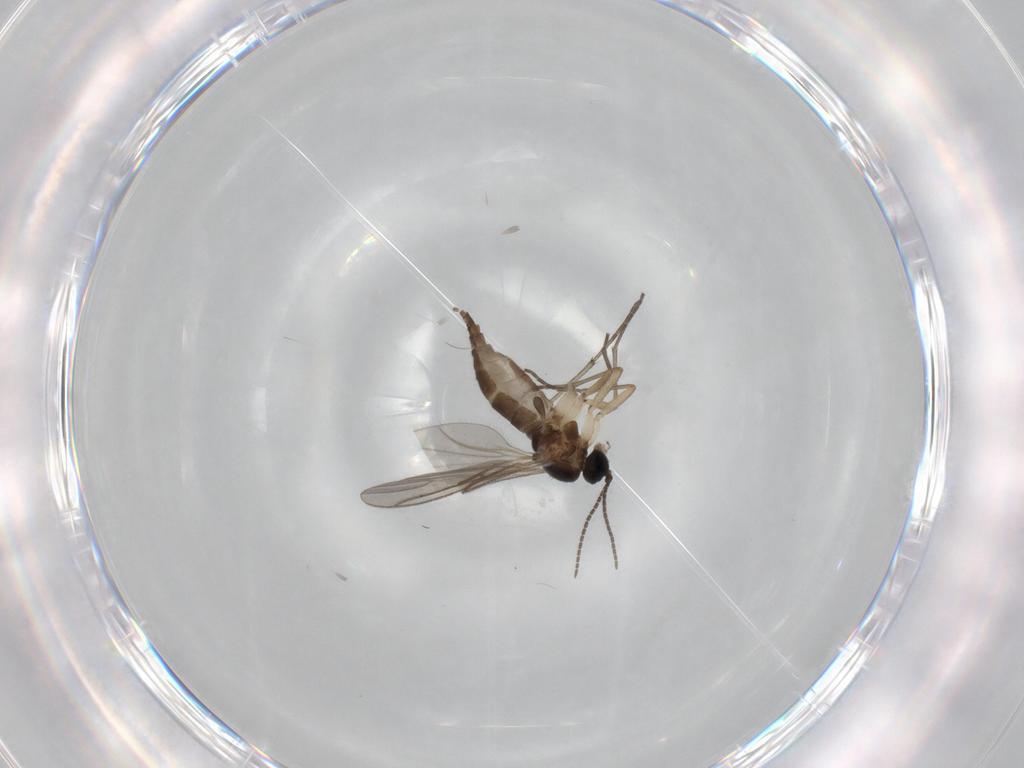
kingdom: Animalia
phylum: Arthropoda
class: Insecta
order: Diptera
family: Sciaridae
